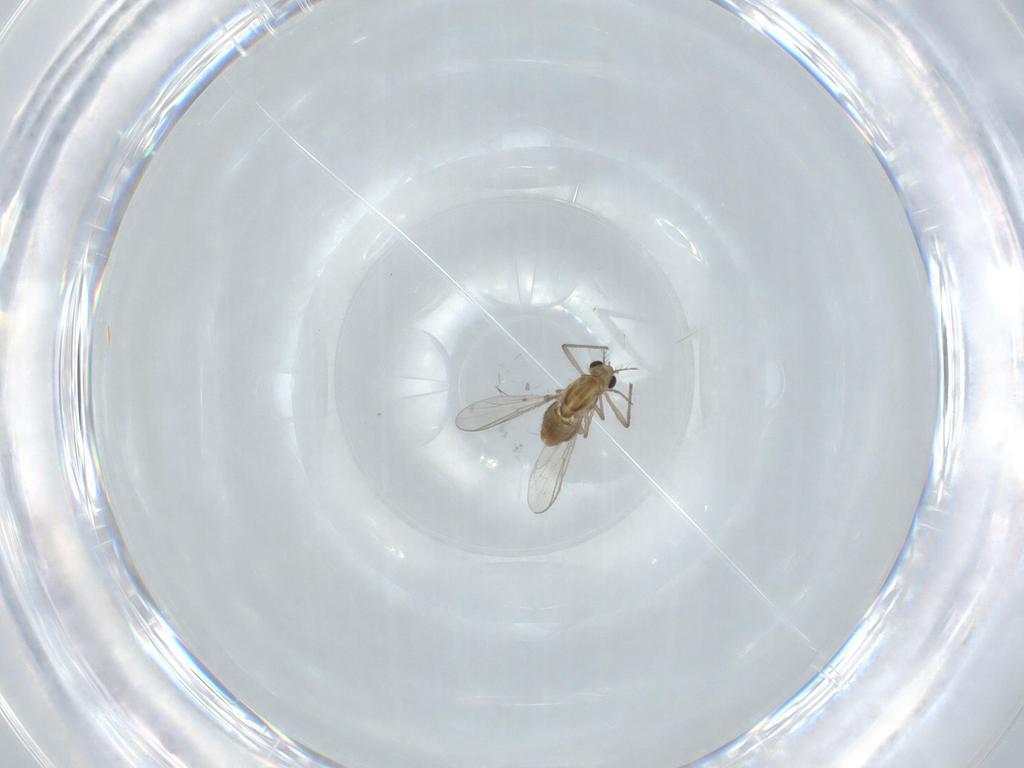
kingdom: Animalia
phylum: Arthropoda
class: Insecta
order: Diptera
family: Chironomidae
